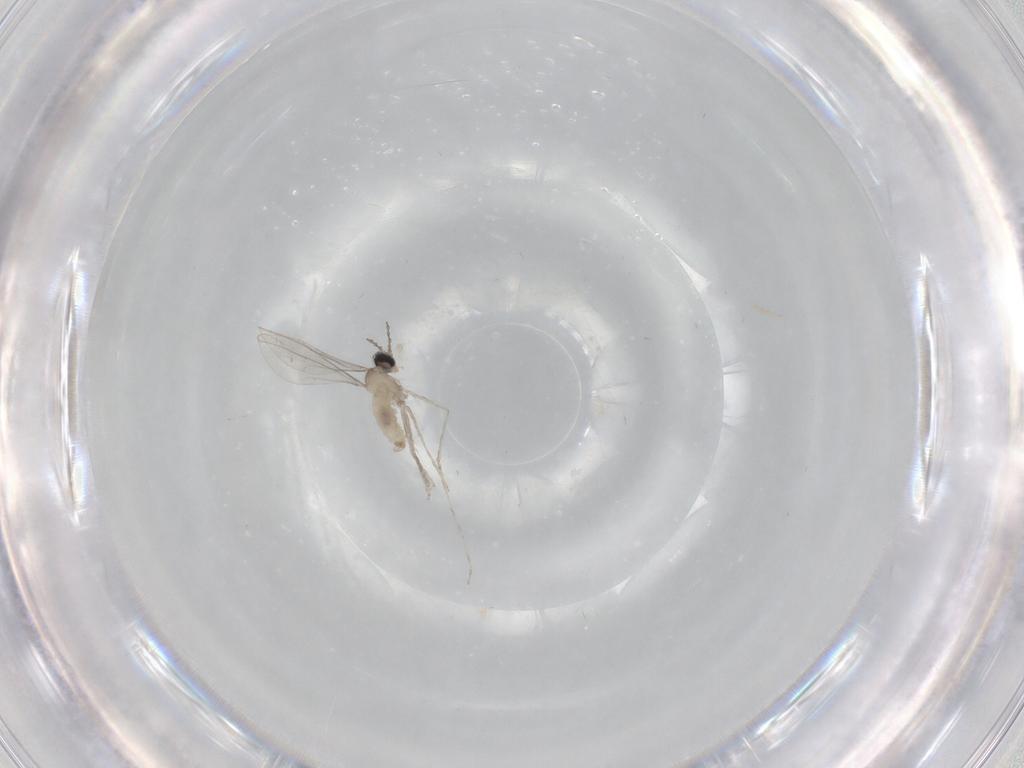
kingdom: Animalia
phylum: Arthropoda
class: Insecta
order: Diptera
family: Cecidomyiidae
